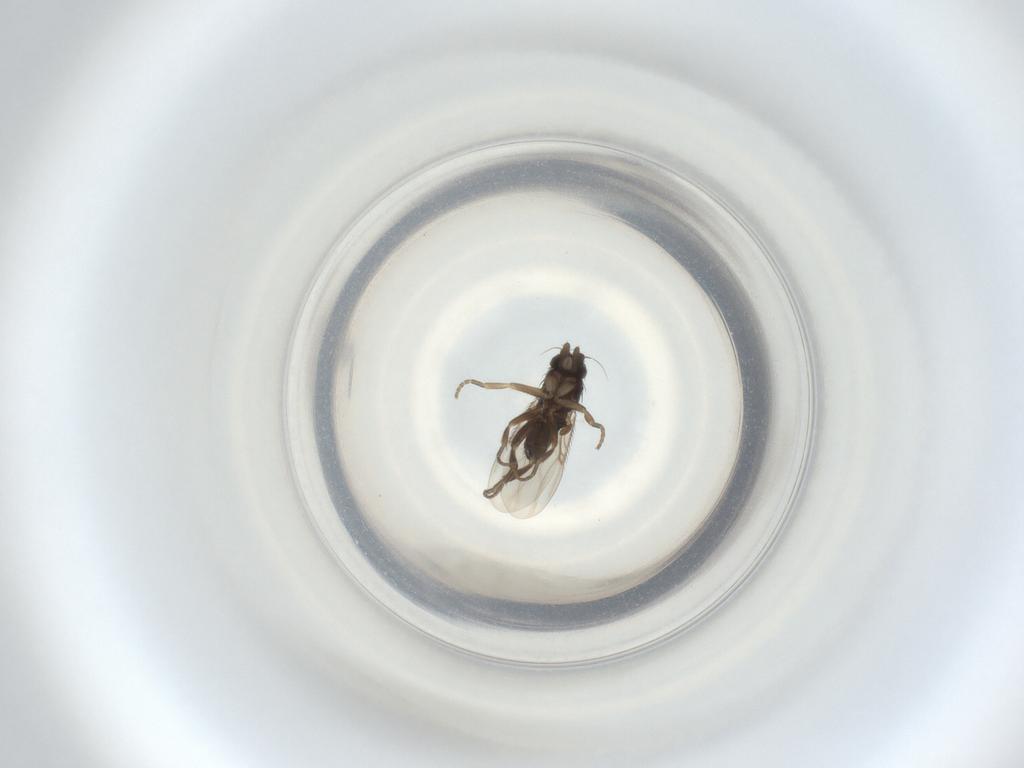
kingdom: Animalia
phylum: Arthropoda
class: Insecta
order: Diptera
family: Phoridae
